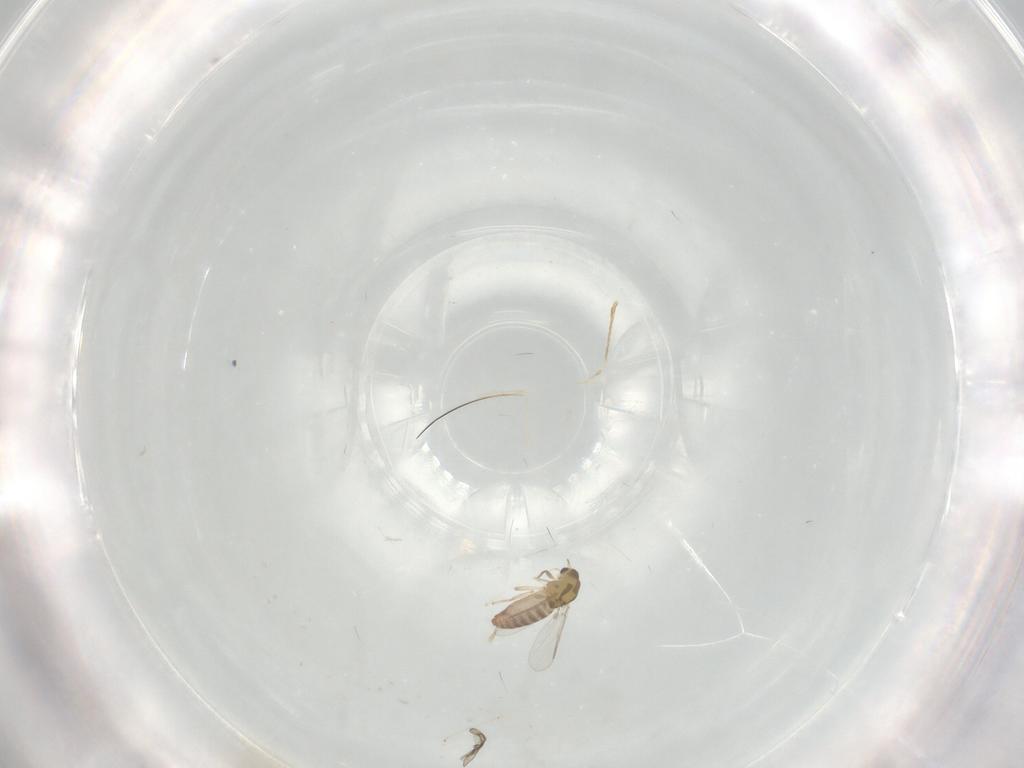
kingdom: Animalia
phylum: Arthropoda
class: Insecta
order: Diptera
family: Chironomidae
